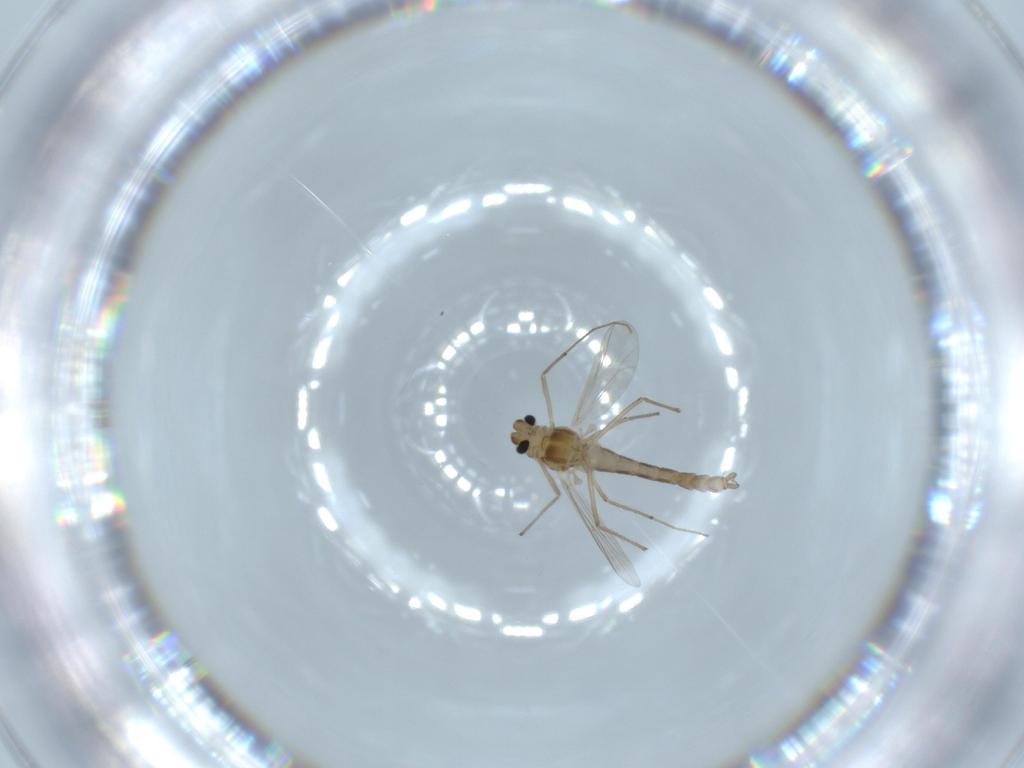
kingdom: Animalia
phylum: Arthropoda
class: Insecta
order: Diptera
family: Chironomidae
